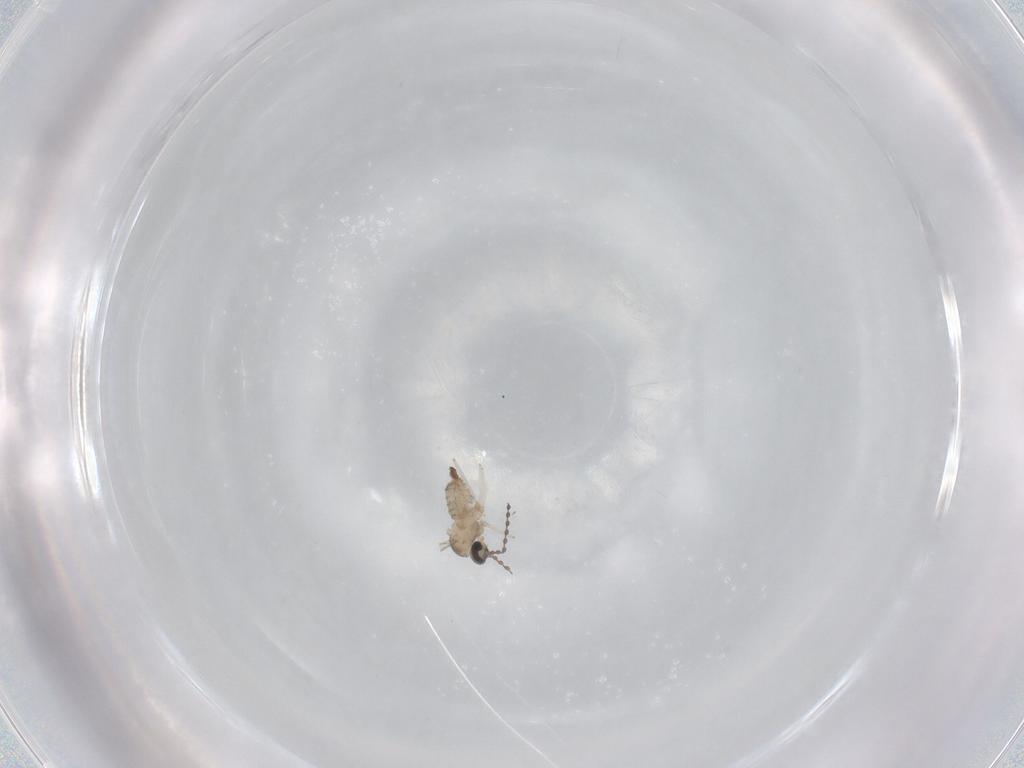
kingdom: Animalia
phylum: Arthropoda
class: Insecta
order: Diptera
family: Cecidomyiidae
